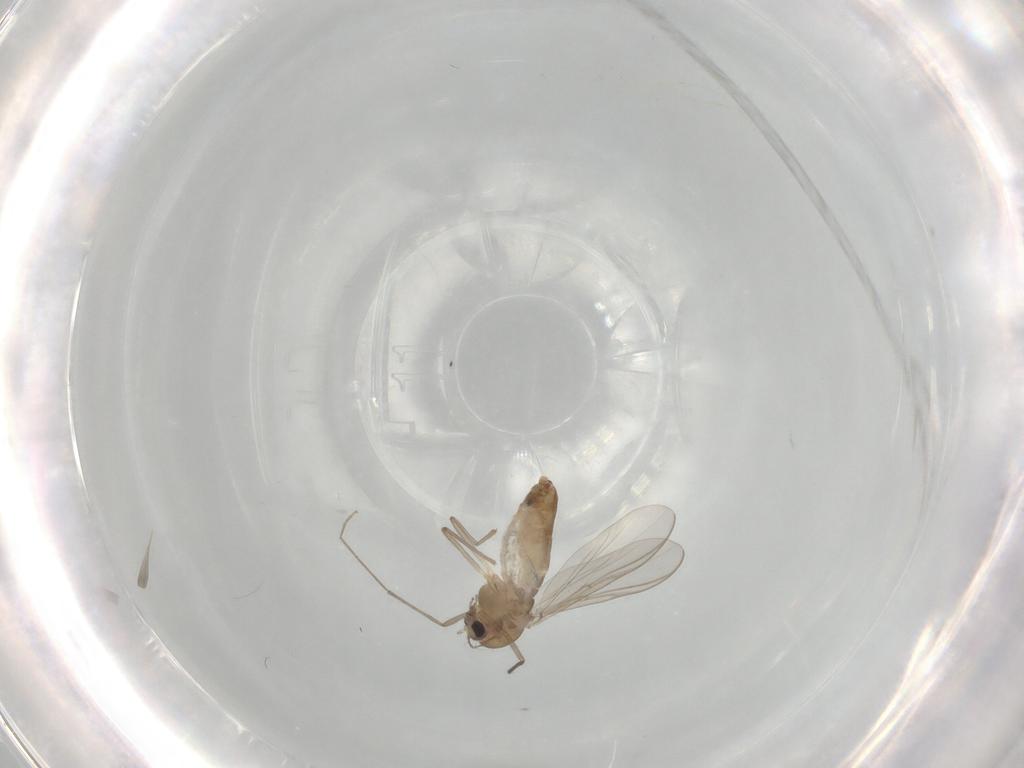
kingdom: Animalia
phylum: Arthropoda
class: Insecta
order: Diptera
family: Chironomidae
